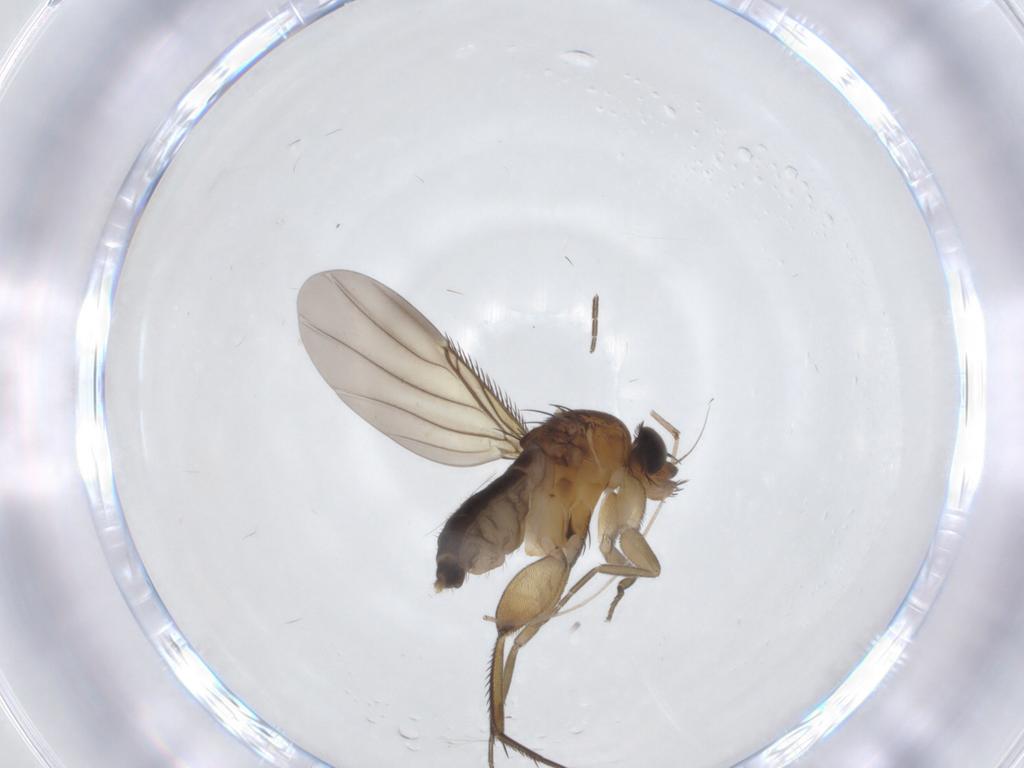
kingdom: Animalia
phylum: Arthropoda
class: Insecta
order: Diptera
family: Phoridae
